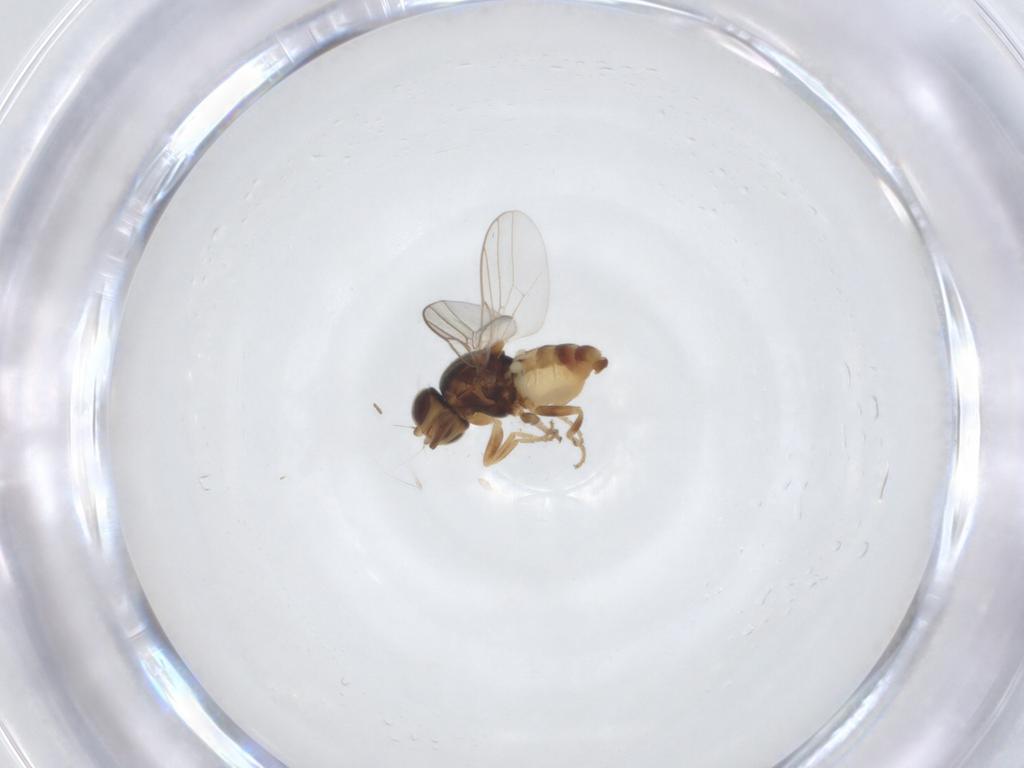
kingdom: Animalia
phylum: Arthropoda
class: Insecta
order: Diptera
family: Chloropidae
